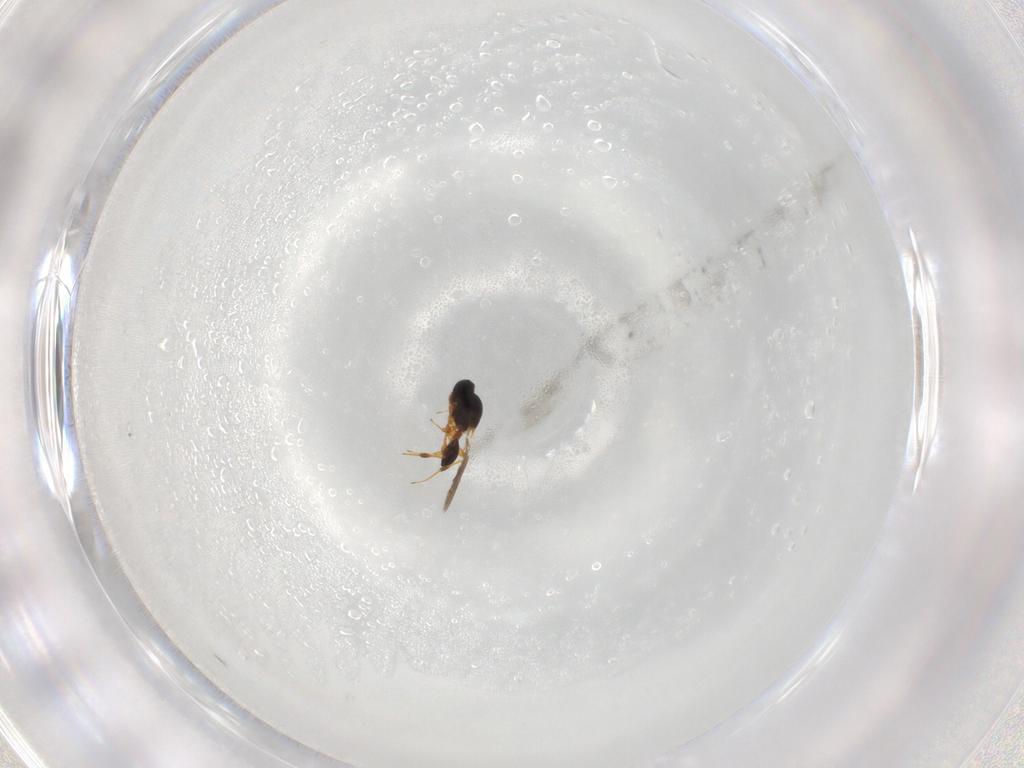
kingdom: Animalia
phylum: Arthropoda
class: Insecta
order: Hymenoptera
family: Platygastridae
